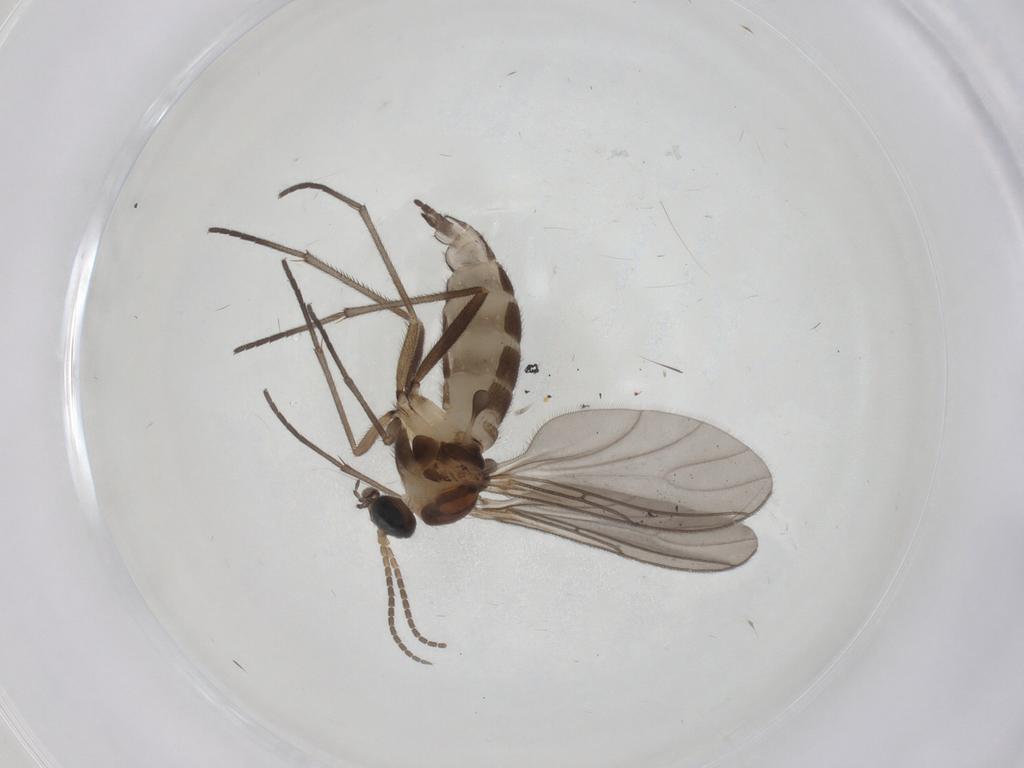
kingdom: Animalia
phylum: Arthropoda
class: Insecta
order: Diptera
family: Sciaridae
